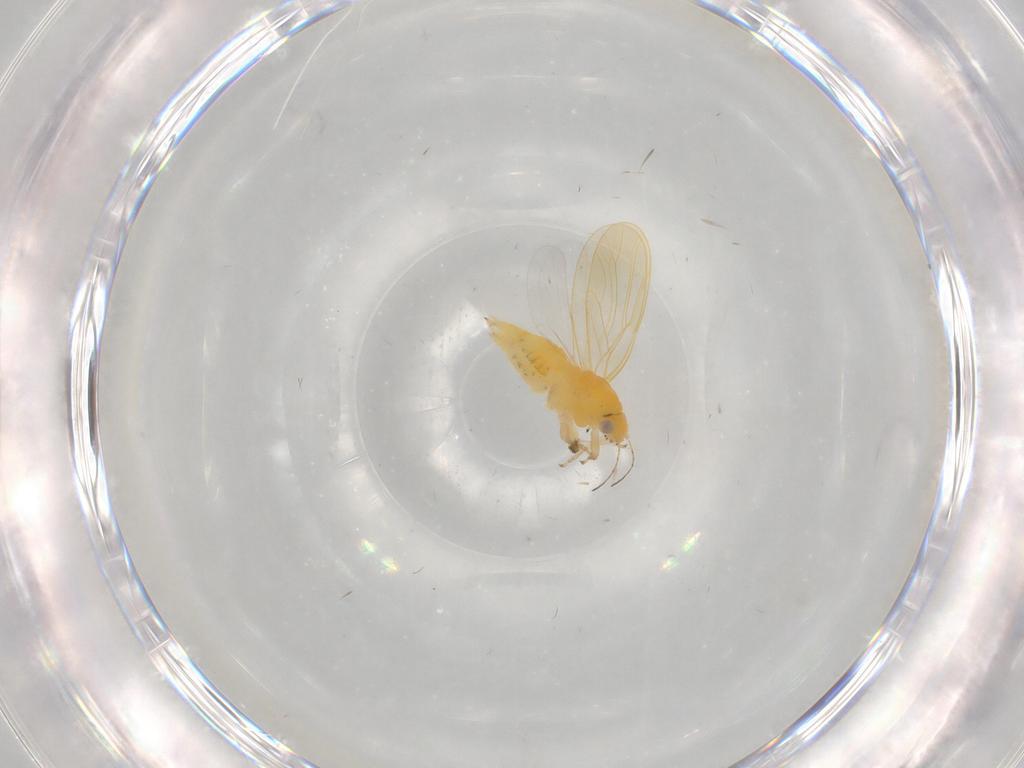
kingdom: Animalia
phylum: Arthropoda
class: Insecta
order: Hemiptera
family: Psyllidae
